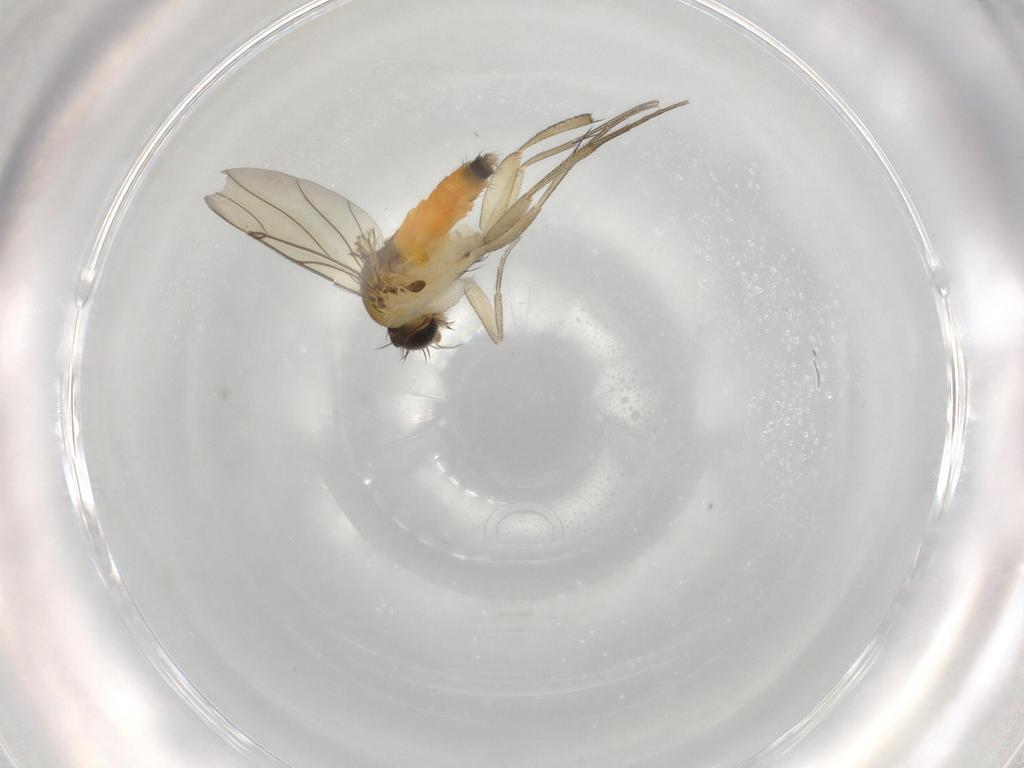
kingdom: Animalia
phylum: Arthropoda
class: Insecta
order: Diptera
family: Phoridae
